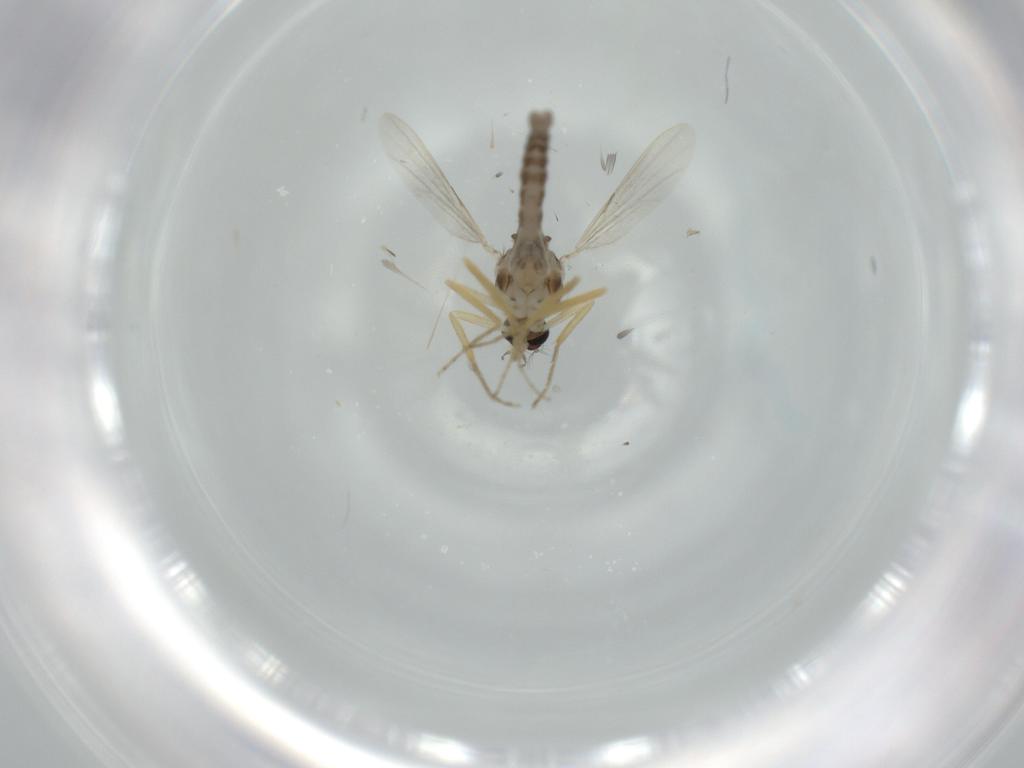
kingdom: Animalia
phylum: Arthropoda
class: Insecta
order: Diptera
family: Ceratopogonidae
